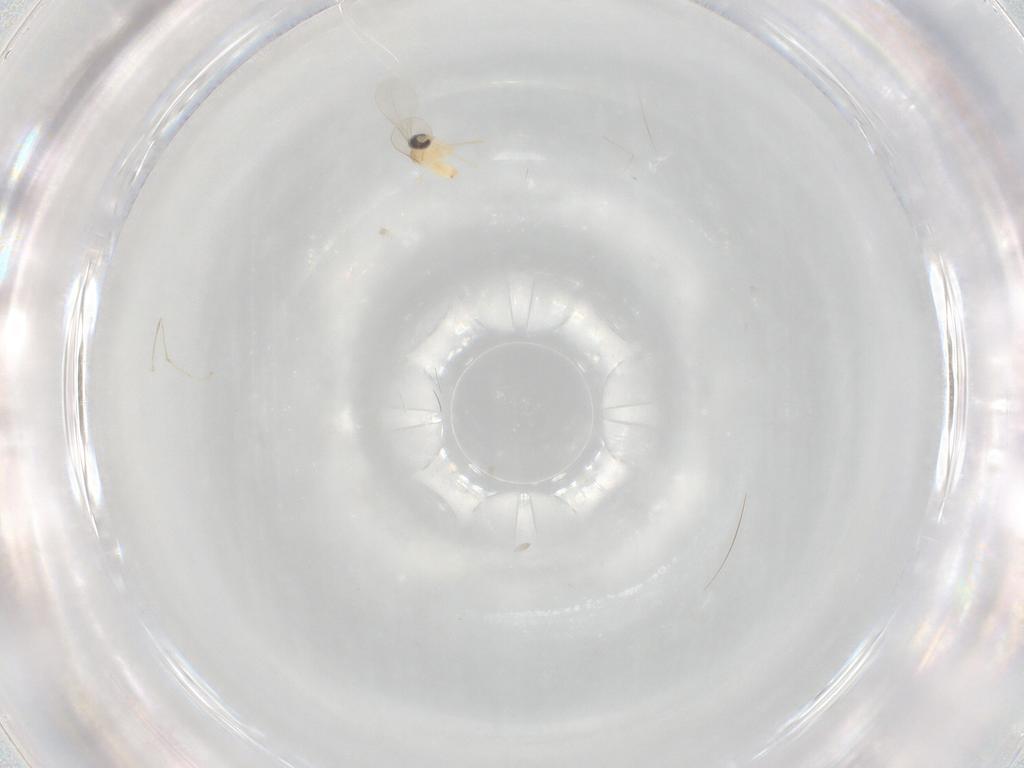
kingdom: Animalia
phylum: Arthropoda
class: Insecta
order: Diptera
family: Cecidomyiidae
